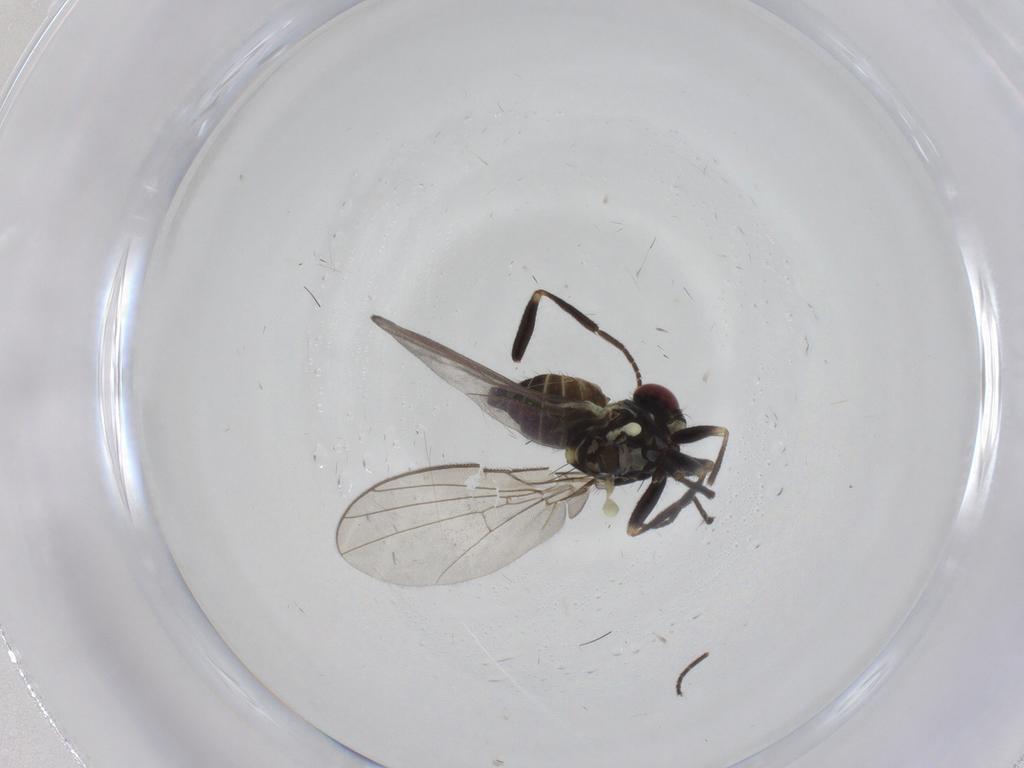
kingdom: Animalia
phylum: Arthropoda
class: Insecta
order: Diptera
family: Agromyzidae
